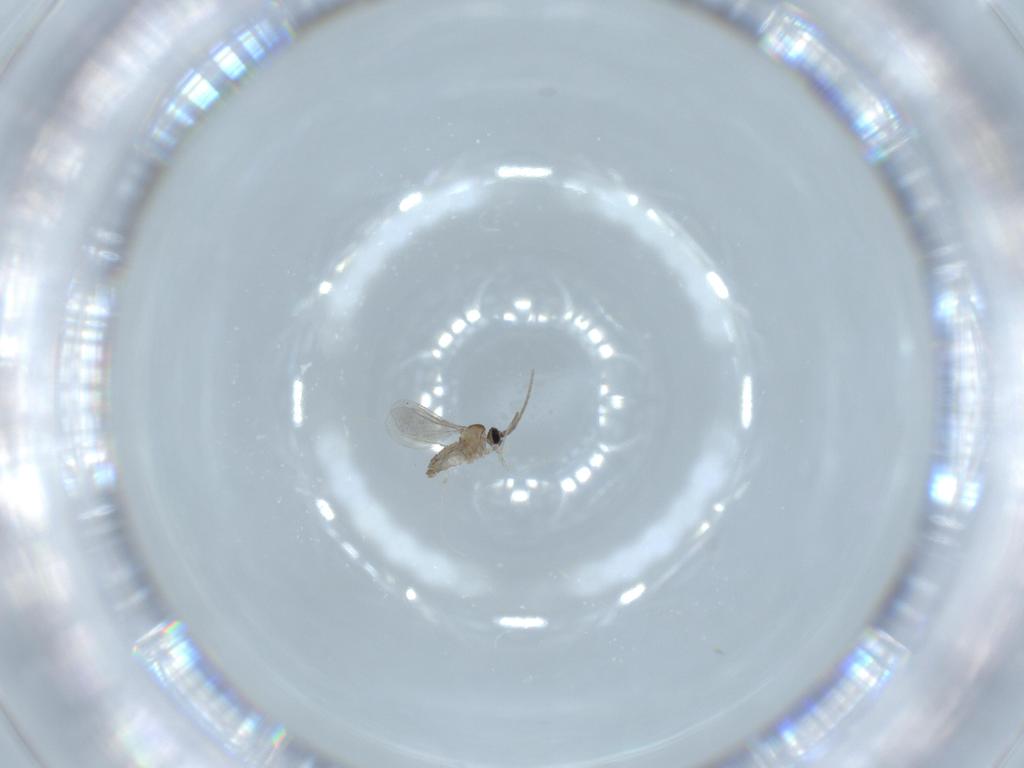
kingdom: Animalia
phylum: Arthropoda
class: Insecta
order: Diptera
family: Cecidomyiidae
